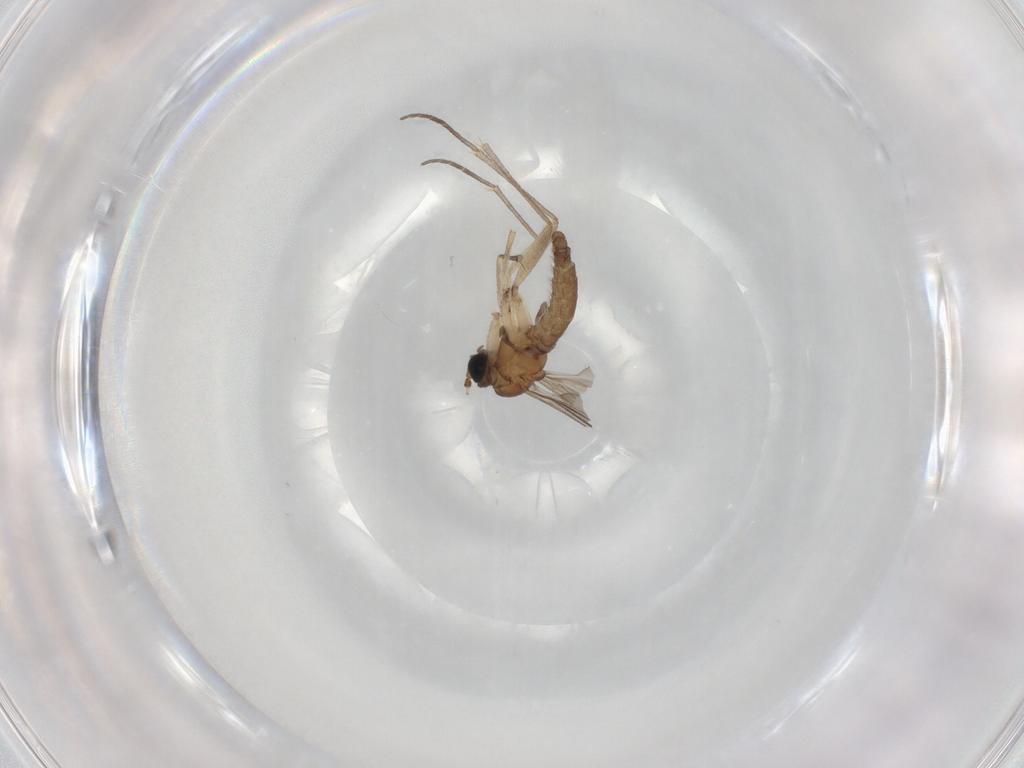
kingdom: Animalia
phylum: Arthropoda
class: Insecta
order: Diptera
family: Sciaridae
